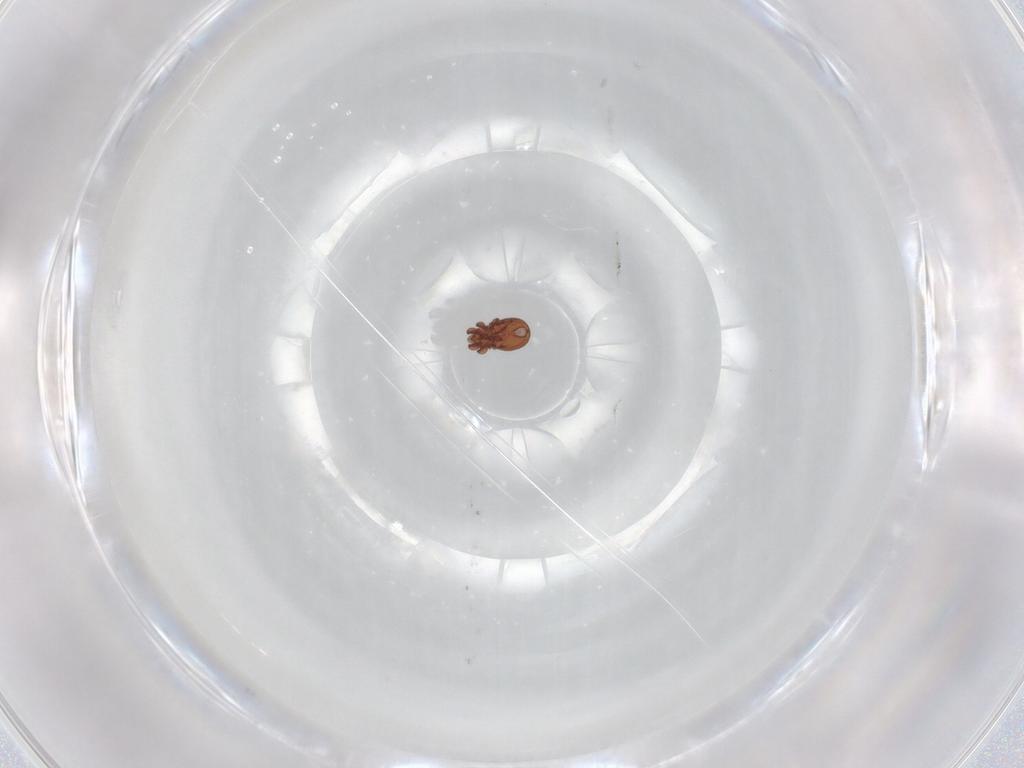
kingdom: Animalia
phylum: Arthropoda
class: Arachnida
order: Sarcoptiformes
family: Eremaeidae
